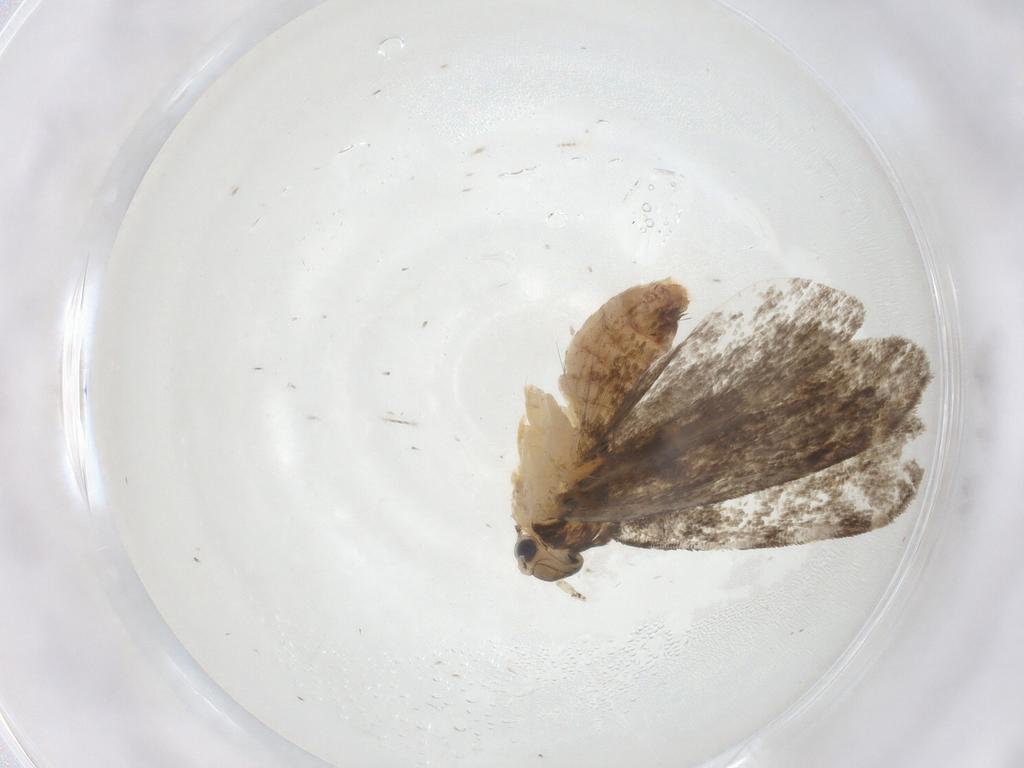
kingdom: Animalia
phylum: Arthropoda
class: Insecta
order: Lepidoptera
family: Tineidae
